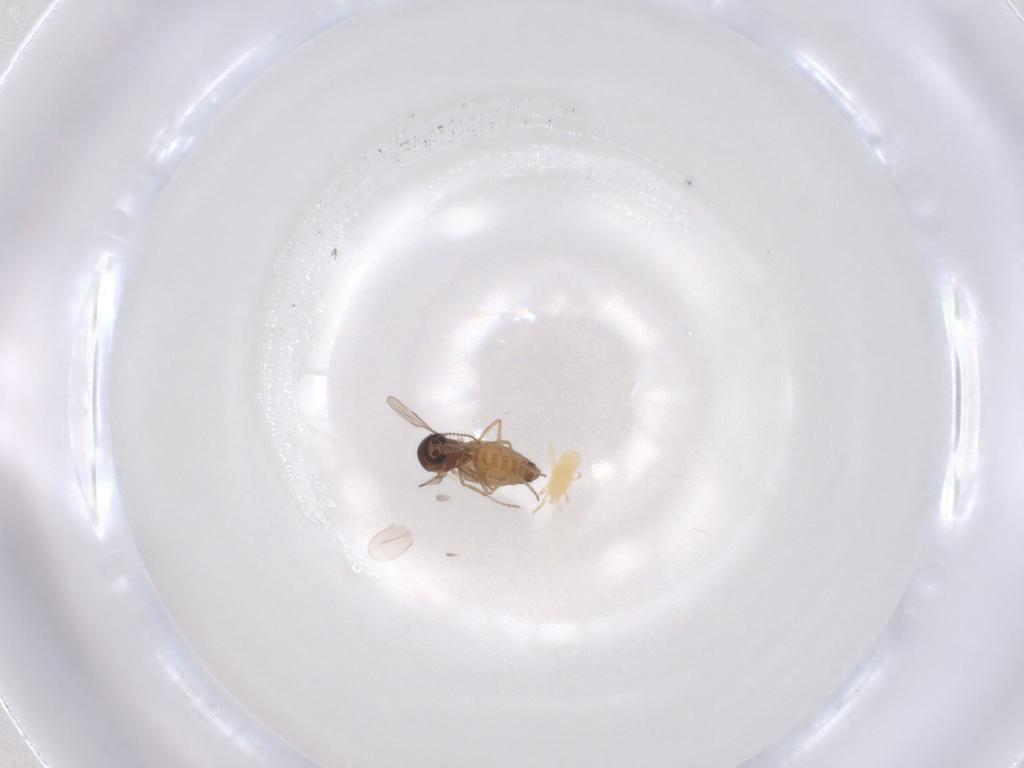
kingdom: Animalia
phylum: Arthropoda
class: Insecta
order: Diptera
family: Ceratopogonidae
